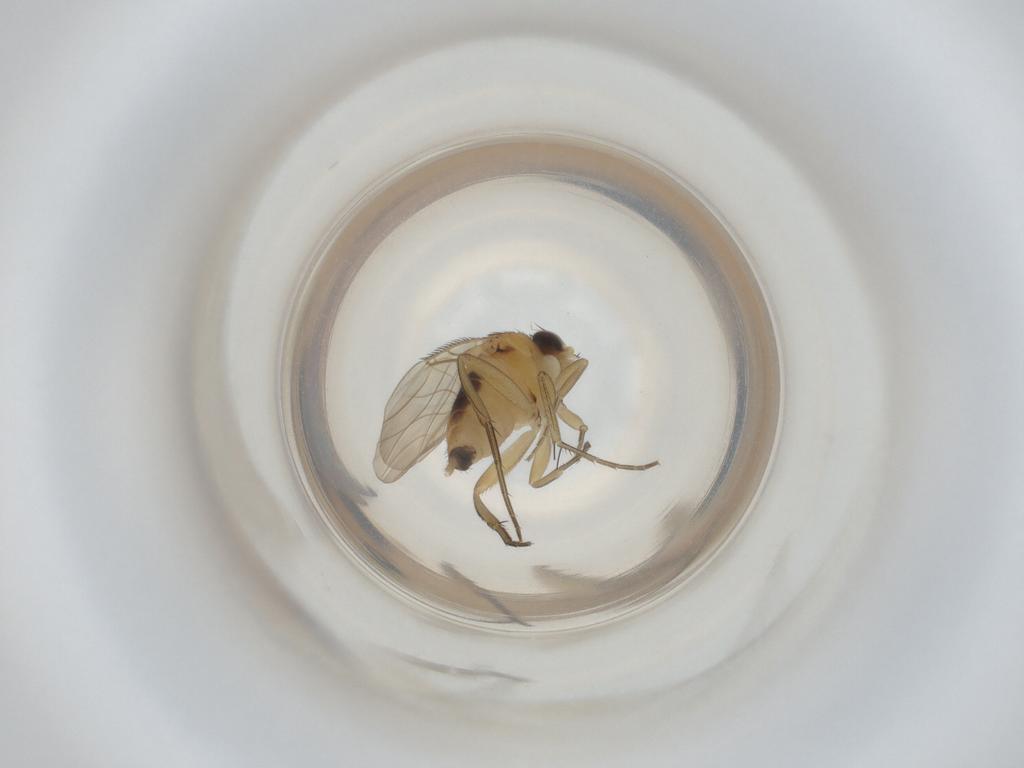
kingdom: Animalia
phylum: Arthropoda
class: Insecta
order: Diptera
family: Phoridae
